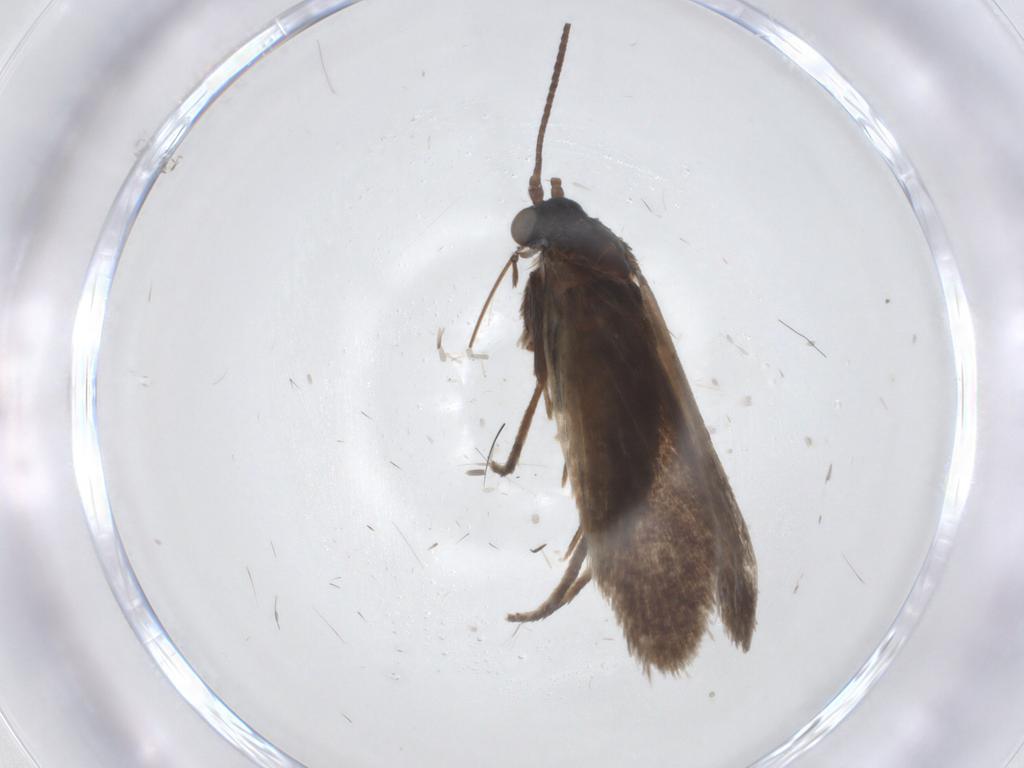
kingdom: Animalia
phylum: Arthropoda
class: Insecta
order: Lepidoptera
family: Adelidae
